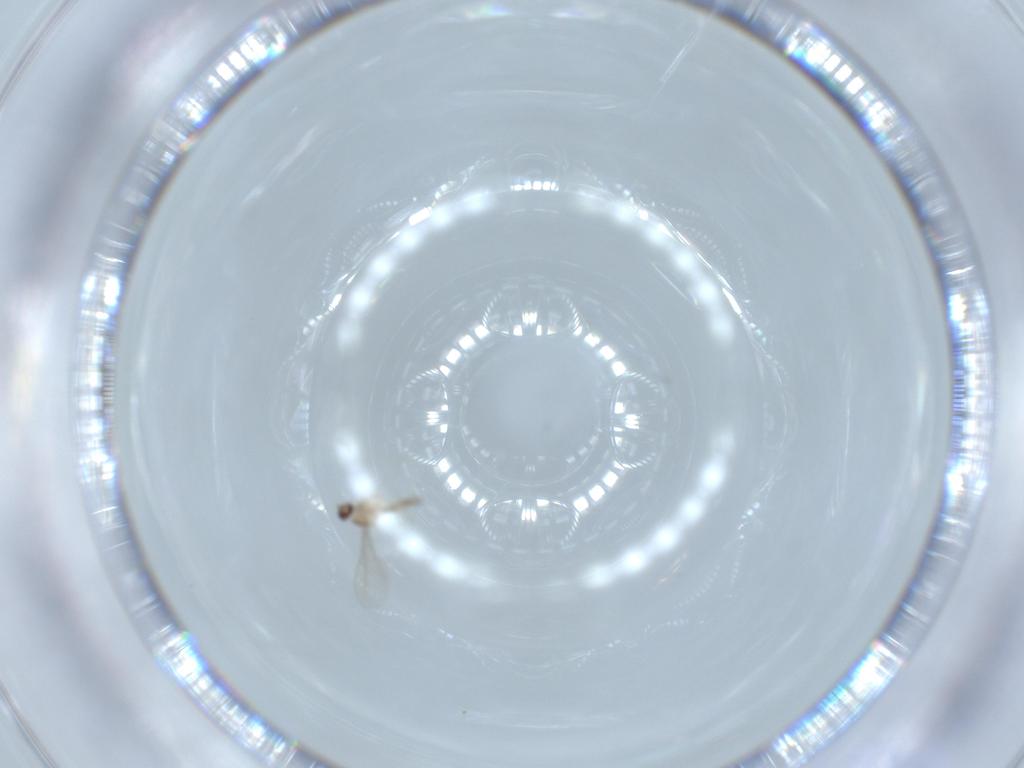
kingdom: Animalia
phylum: Arthropoda
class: Insecta
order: Diptera
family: Cecidomyiidae
